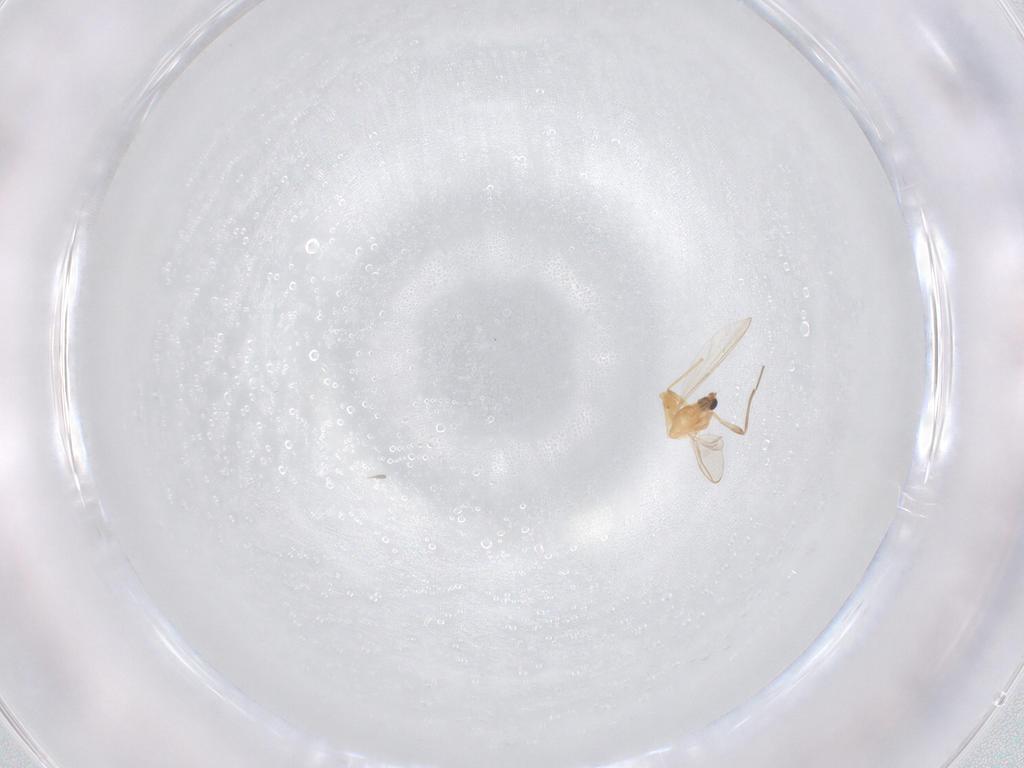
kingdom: Animalia
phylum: Arthropoda
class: Insecta
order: Diptera
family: Chironomidae
